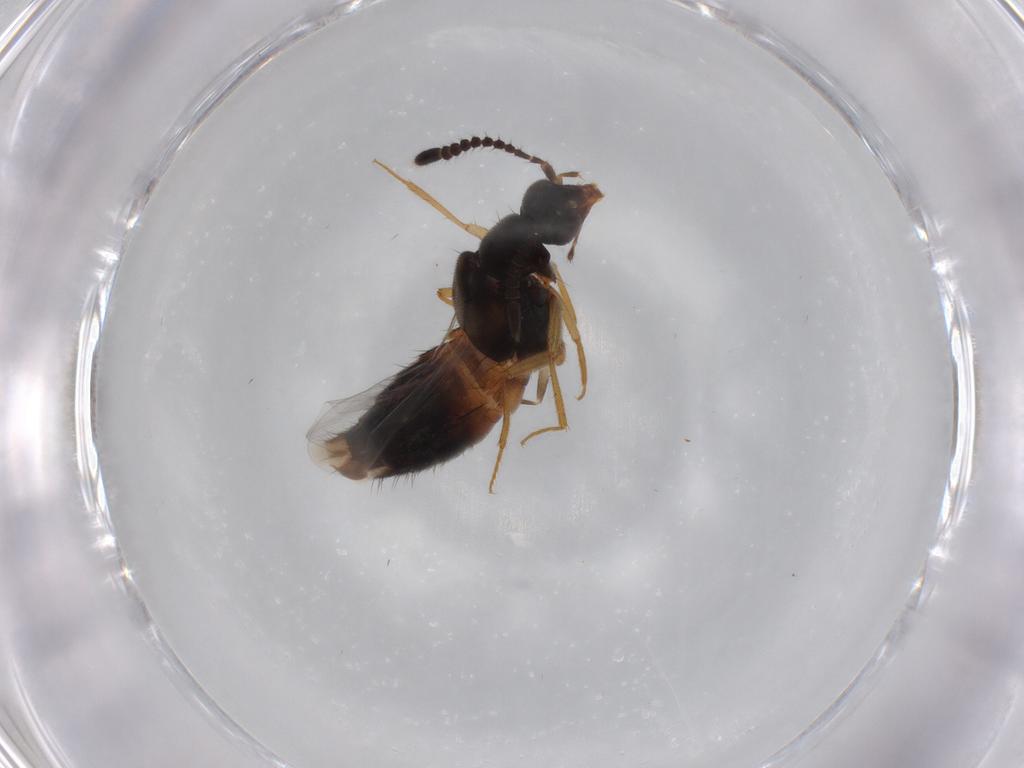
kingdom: Animalia
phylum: Arthropoda
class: Insecta
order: Coleoptera
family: Staphylinidae
